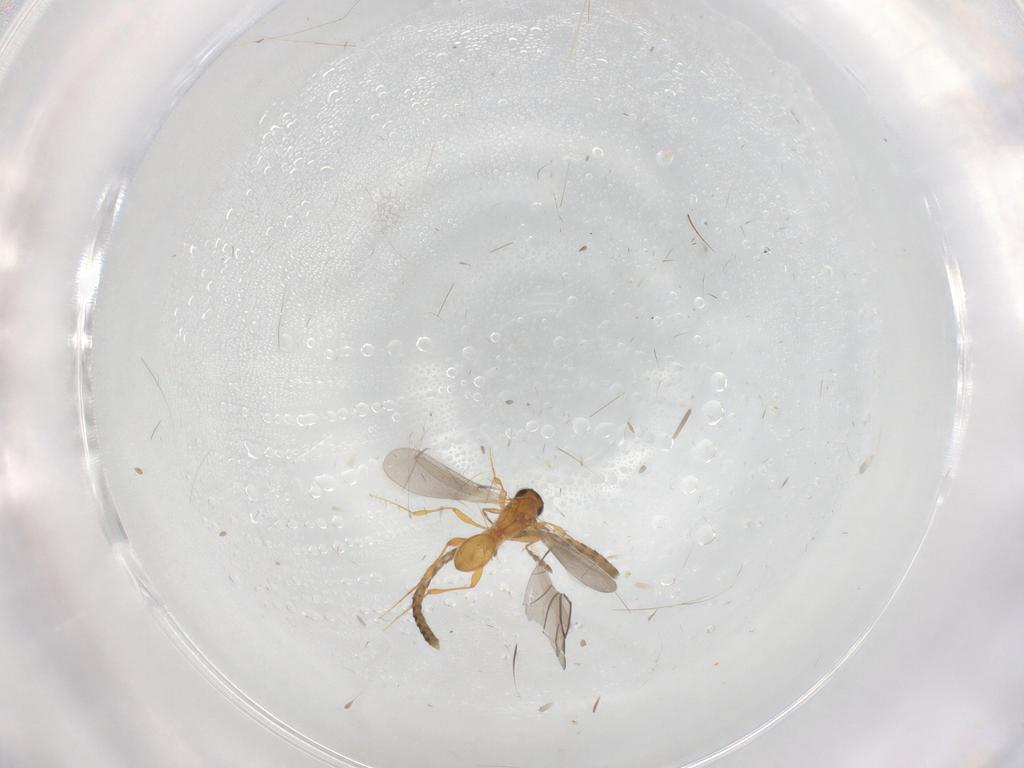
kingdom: Animalia
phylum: Arthropoda
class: Insecta
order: Hymenoptera
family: Platygastridae
